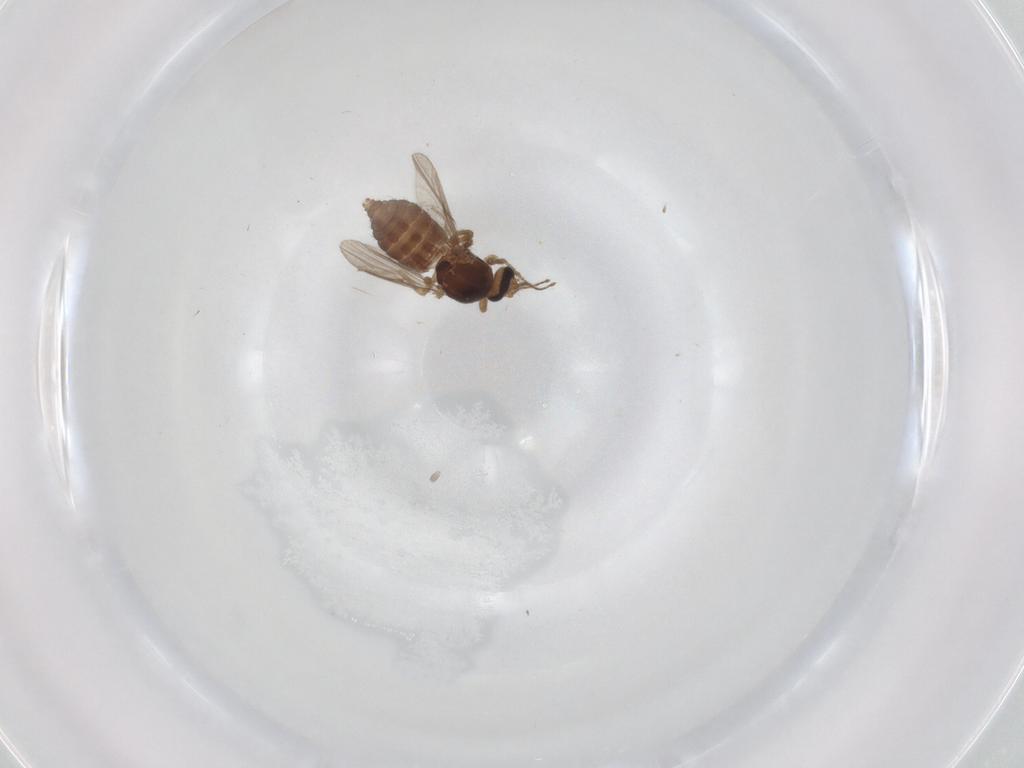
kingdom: Animalia
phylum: Arthropoda
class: Insecta
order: Diptera
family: Ceratopogonidae
